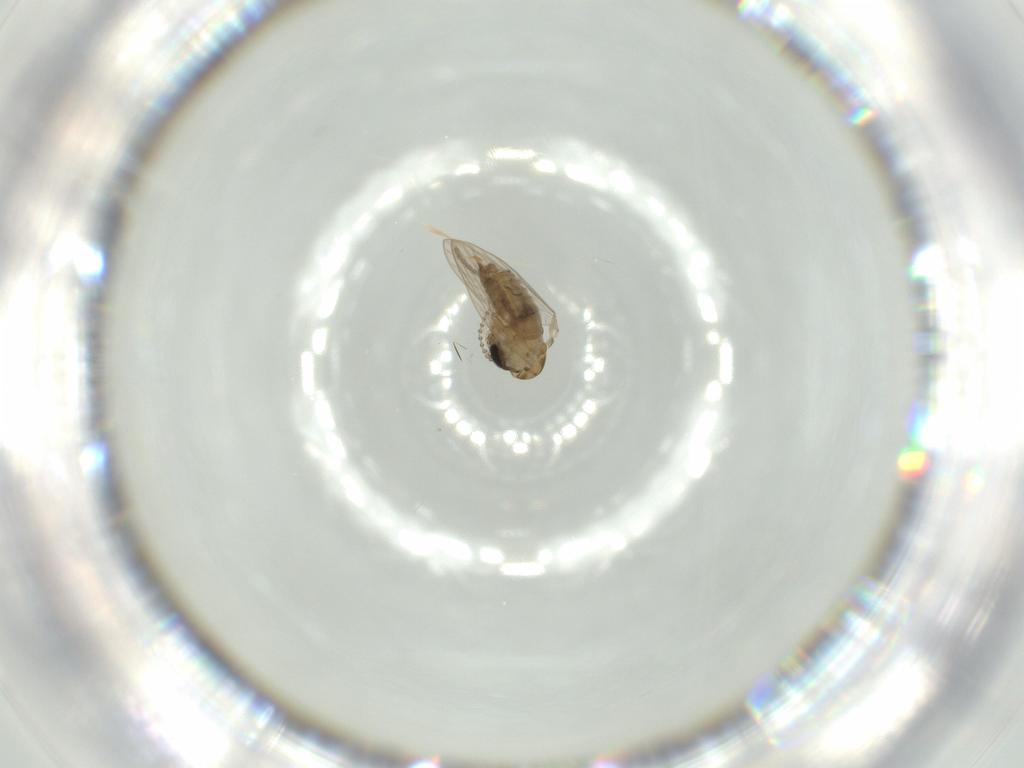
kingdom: Animalia
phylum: Arthropoda
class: Insecta
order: Diptera
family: Psychodidae
